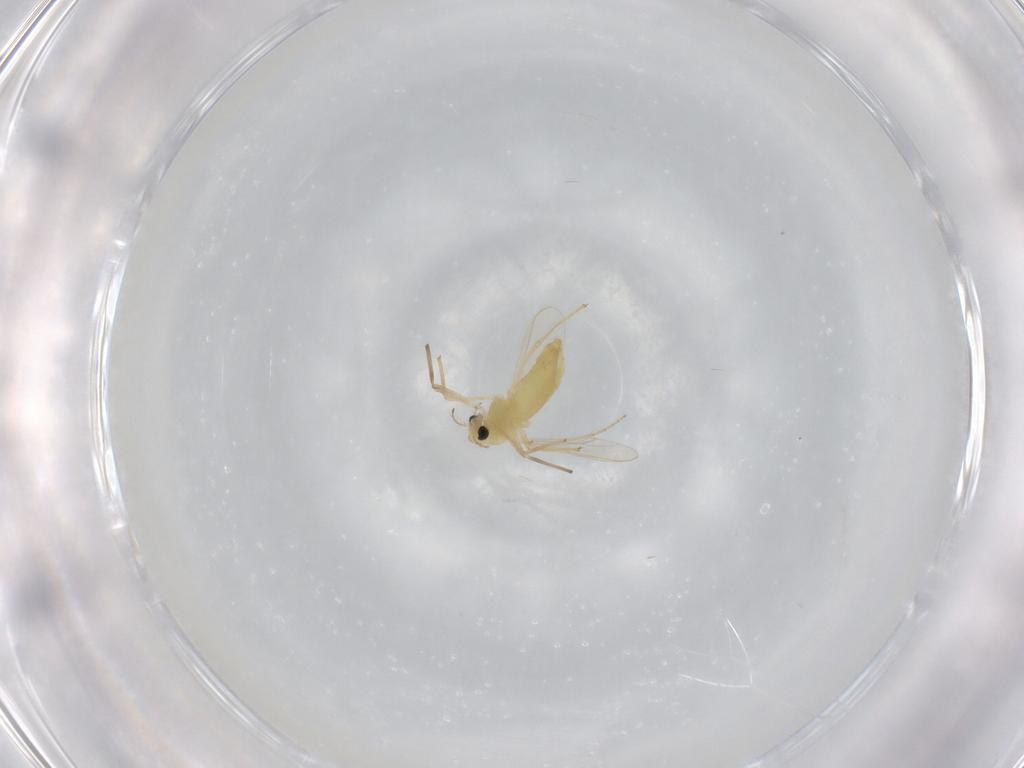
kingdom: Animalia
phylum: Arthropoda
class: Insecta
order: Diptera
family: Chironomidae
